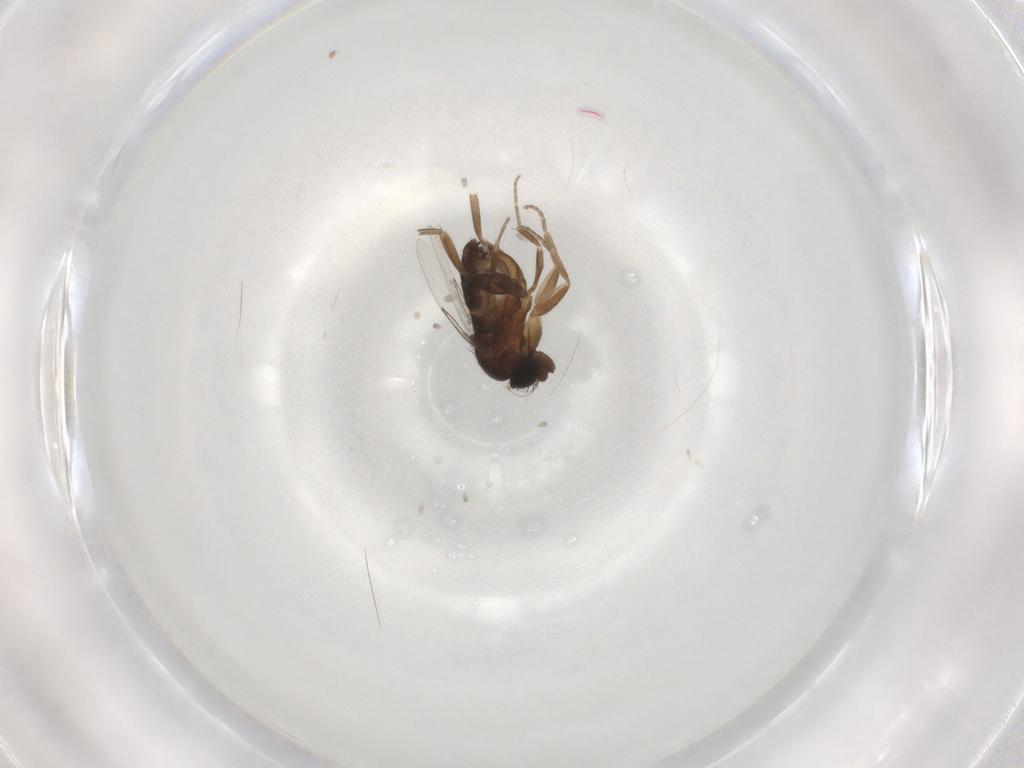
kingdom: Animalia
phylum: Arthropoda
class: Insecta
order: Diptera
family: Phoridae
